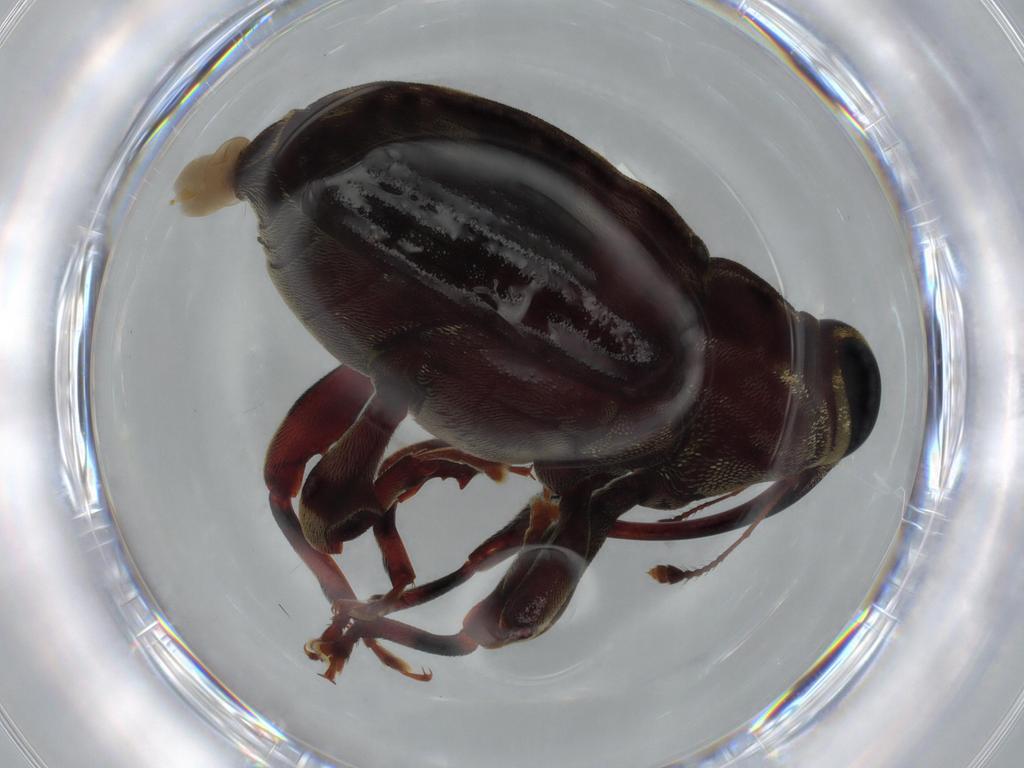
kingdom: Animalia
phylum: Arthropoda
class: Insecta
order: Coleoptera
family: Curculionidae
